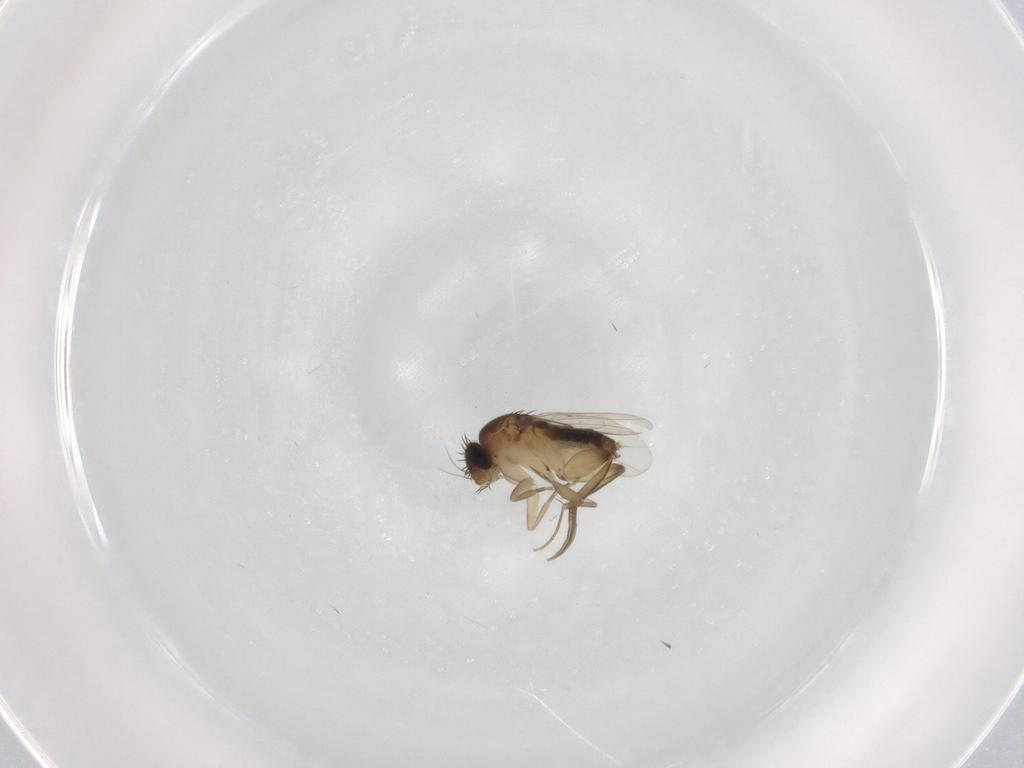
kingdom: Animalia
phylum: Arthropoda
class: Insecta
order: Diptera
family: Phoridae
